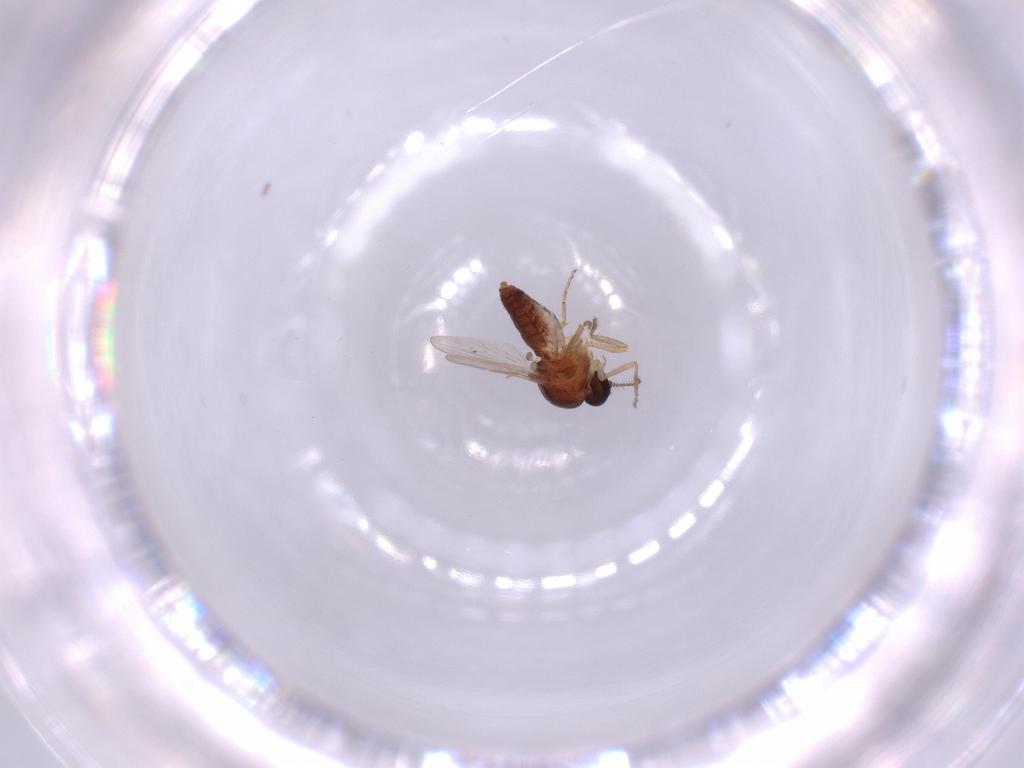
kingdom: Animalia
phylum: Arthropoda
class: Insecta
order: Diptera
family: Ceratopogonidae
